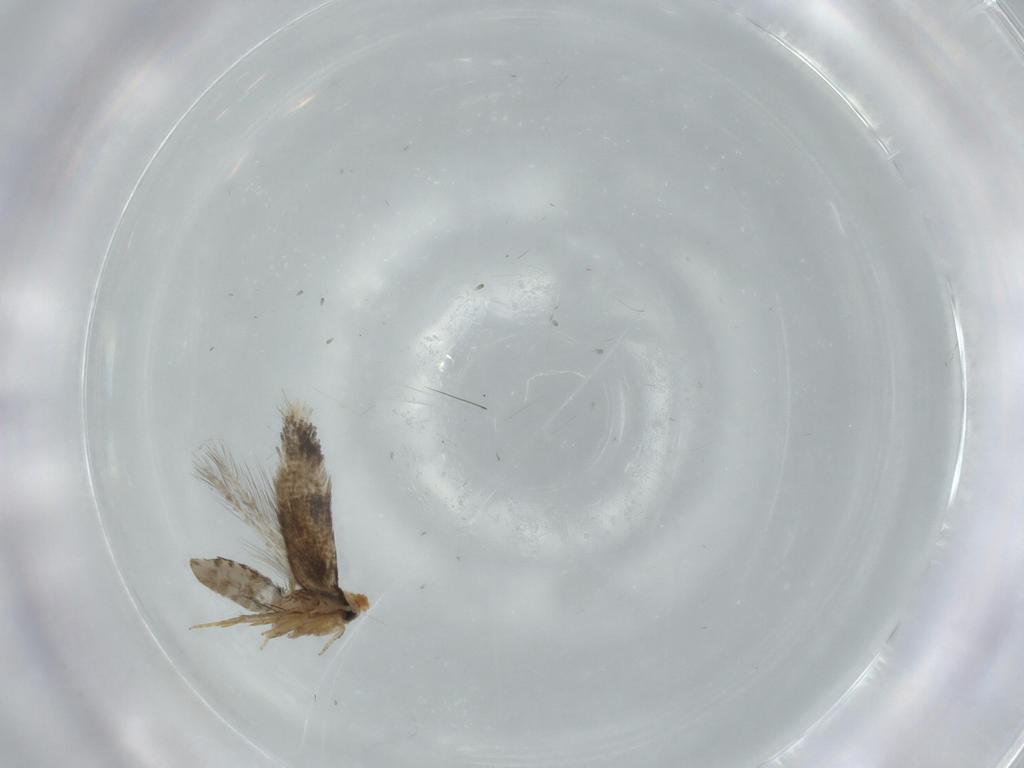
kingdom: Animalia
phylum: Arthropoda
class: Insecta
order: Lepidoptera
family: Nepticulidae
